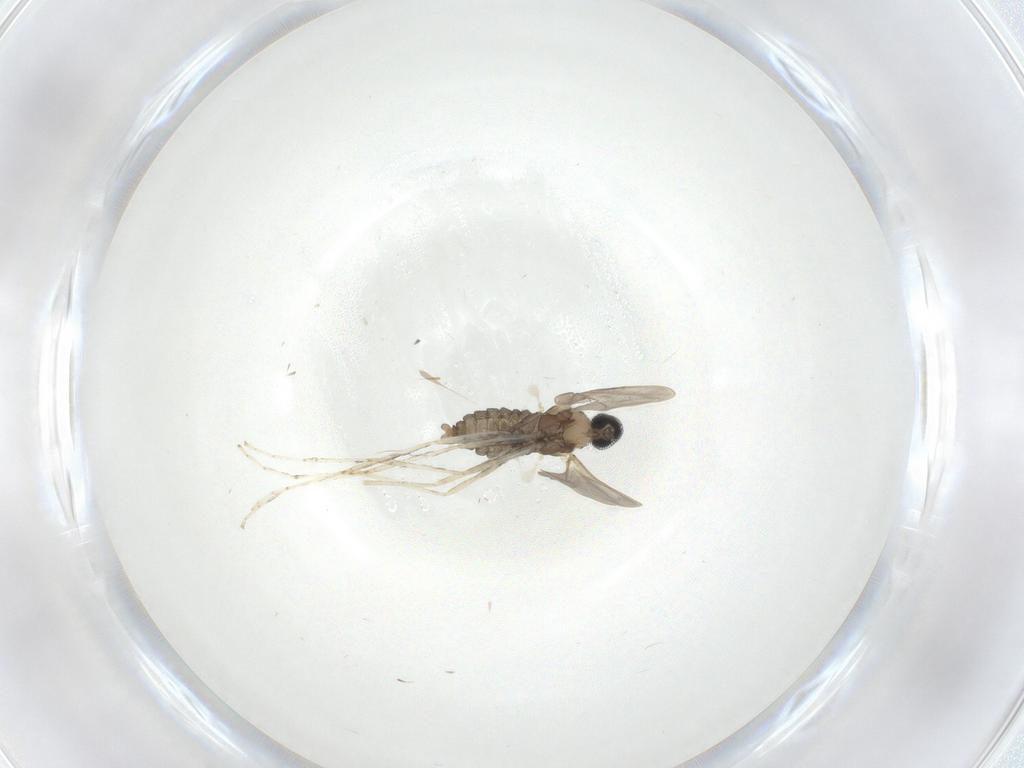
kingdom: Animalia
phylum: Arthropoda
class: Insecta
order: Diptera
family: Cecidomyiidae
